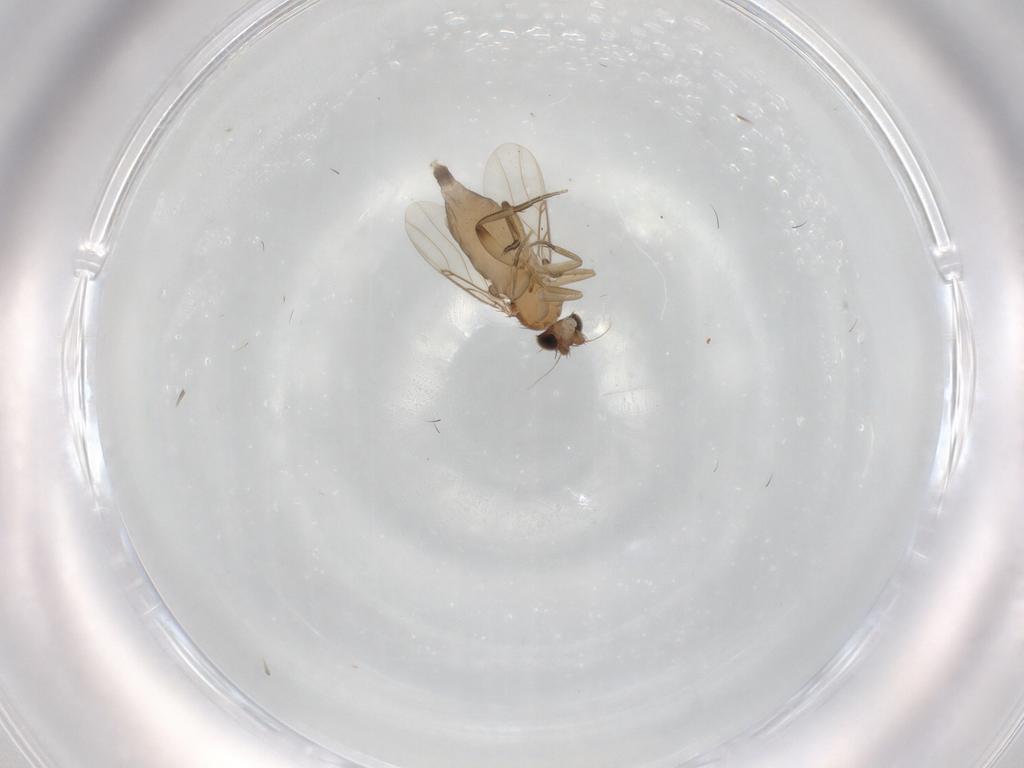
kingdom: Animalia
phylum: Arthropoda
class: Insecta
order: Diptera
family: Phoridae
